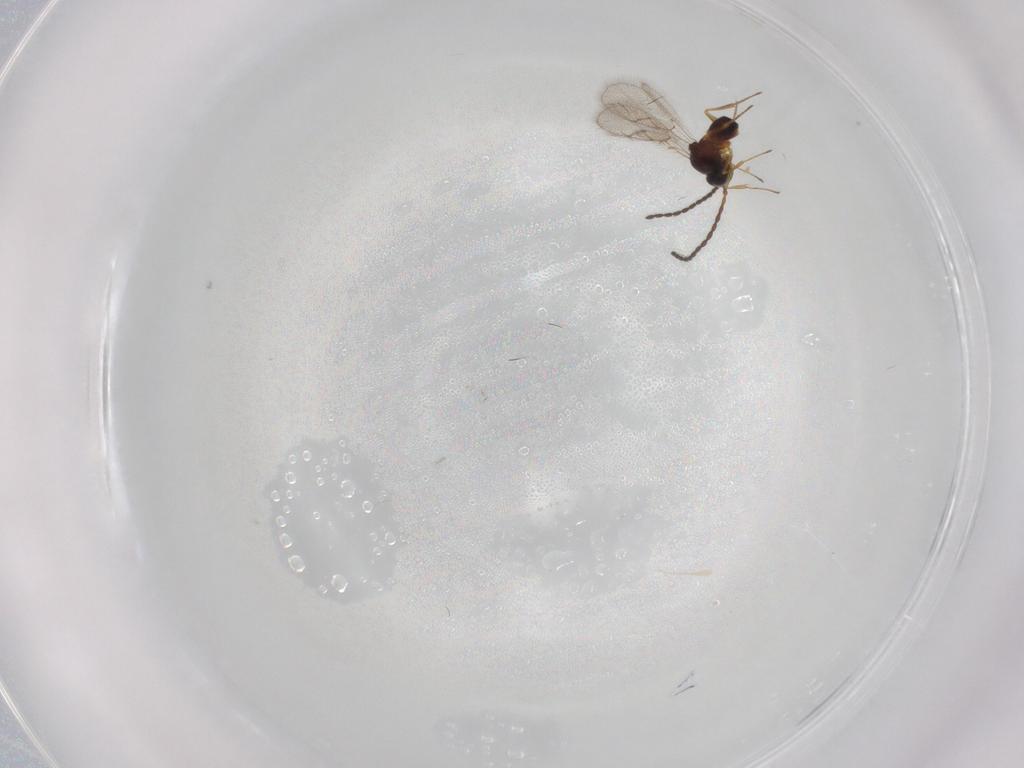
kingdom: Animalia
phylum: Arthropoda
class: Insecta
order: Hymenoptera
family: Figitidae
